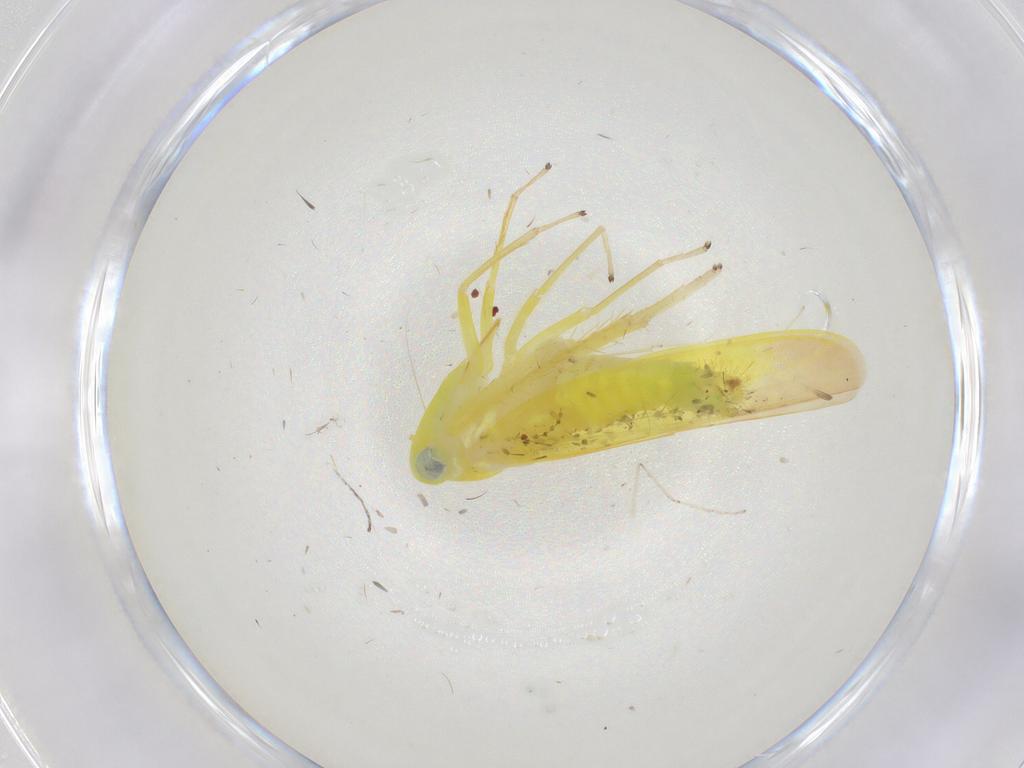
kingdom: Animalia
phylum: Arthropoda
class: Insecta
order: Hemiptera
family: Cicadellidae
